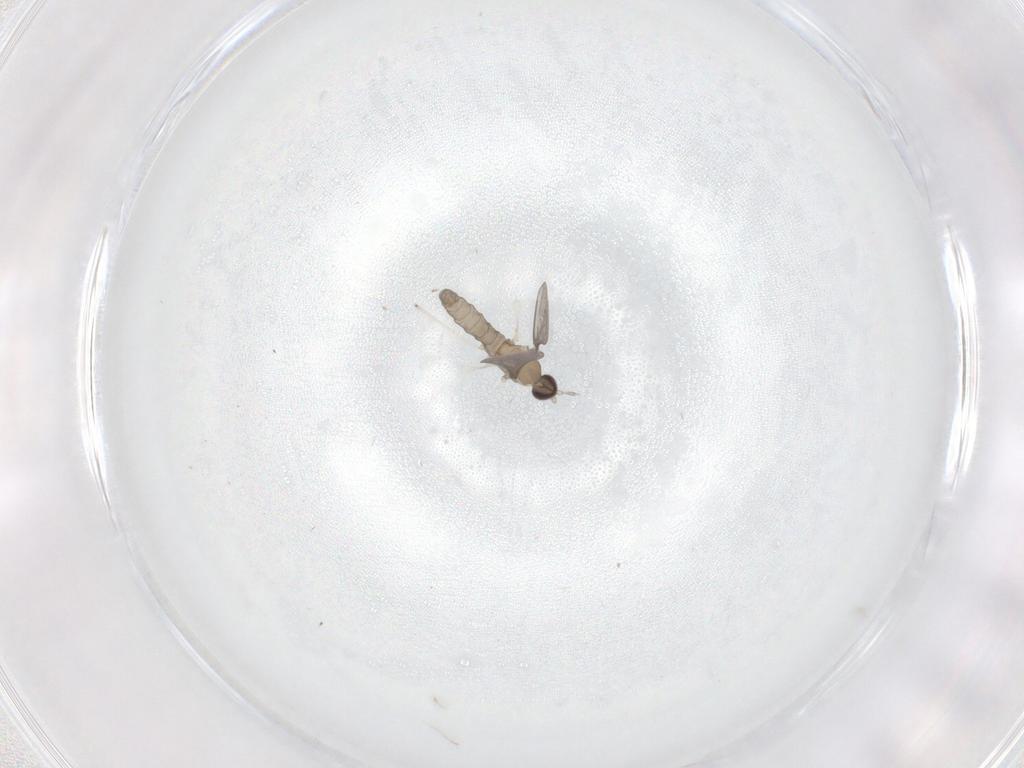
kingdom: Animalia
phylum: Arthropoda
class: Insecta
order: Diptera
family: Cecidomyiidae
